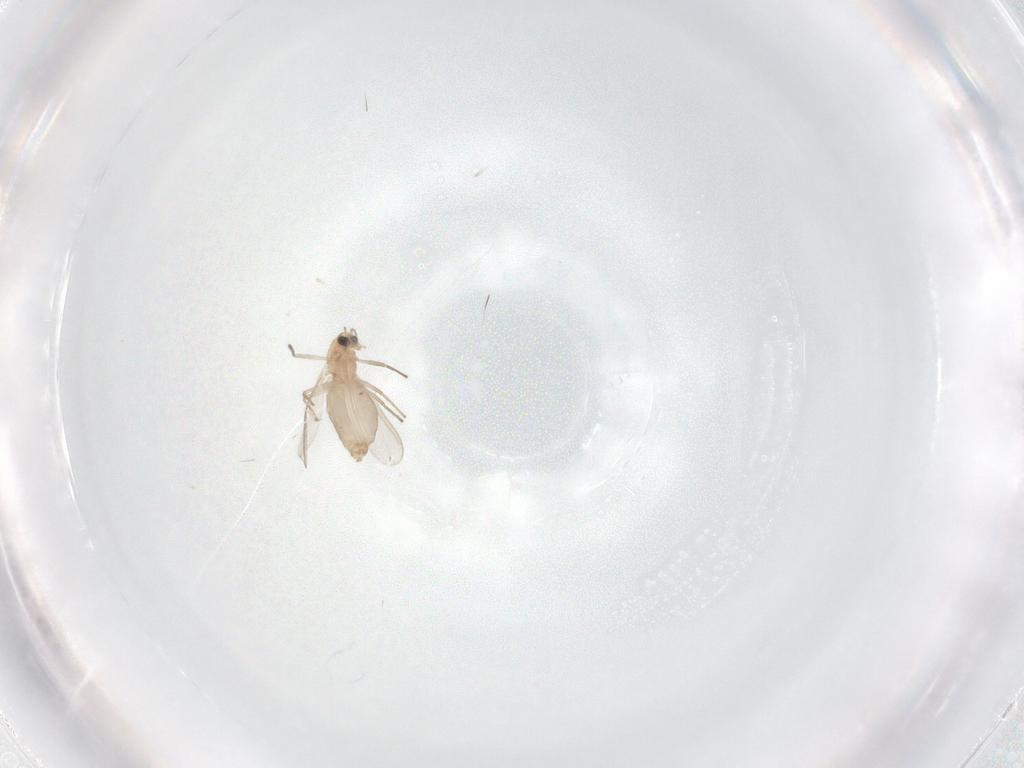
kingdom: Animalia
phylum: Arthropoda
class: Insecta
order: Diptera
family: Chironomidae
